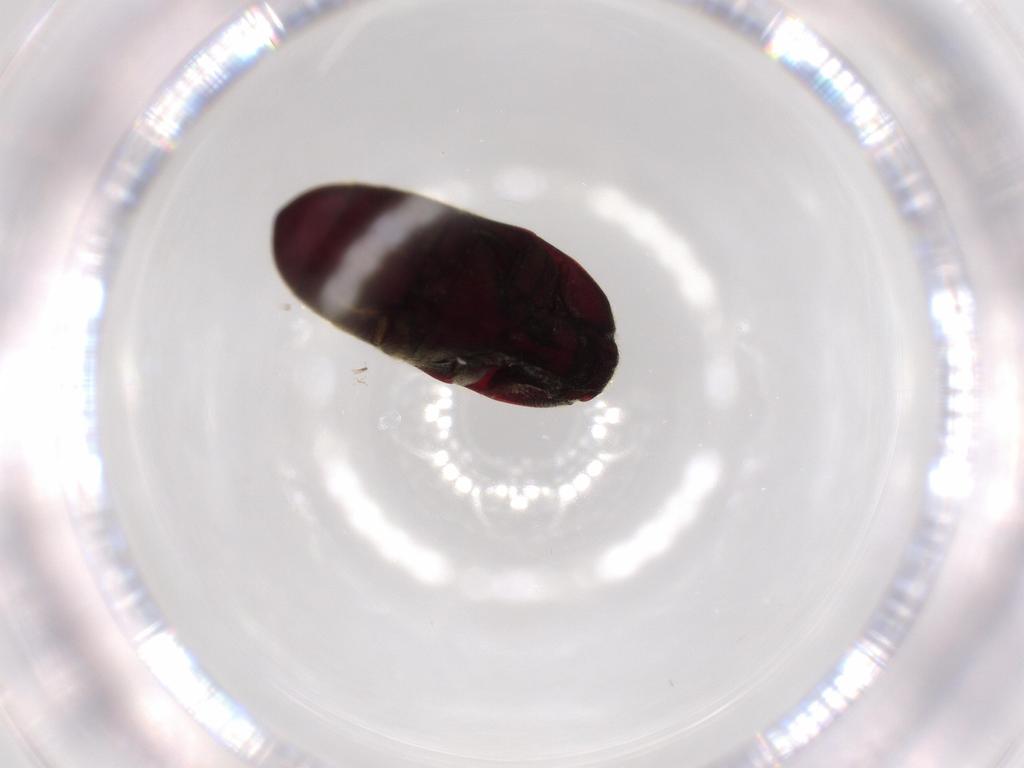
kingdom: Animalia
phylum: Arthropoda
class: Insecta
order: Coleoptera
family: Throscidae
